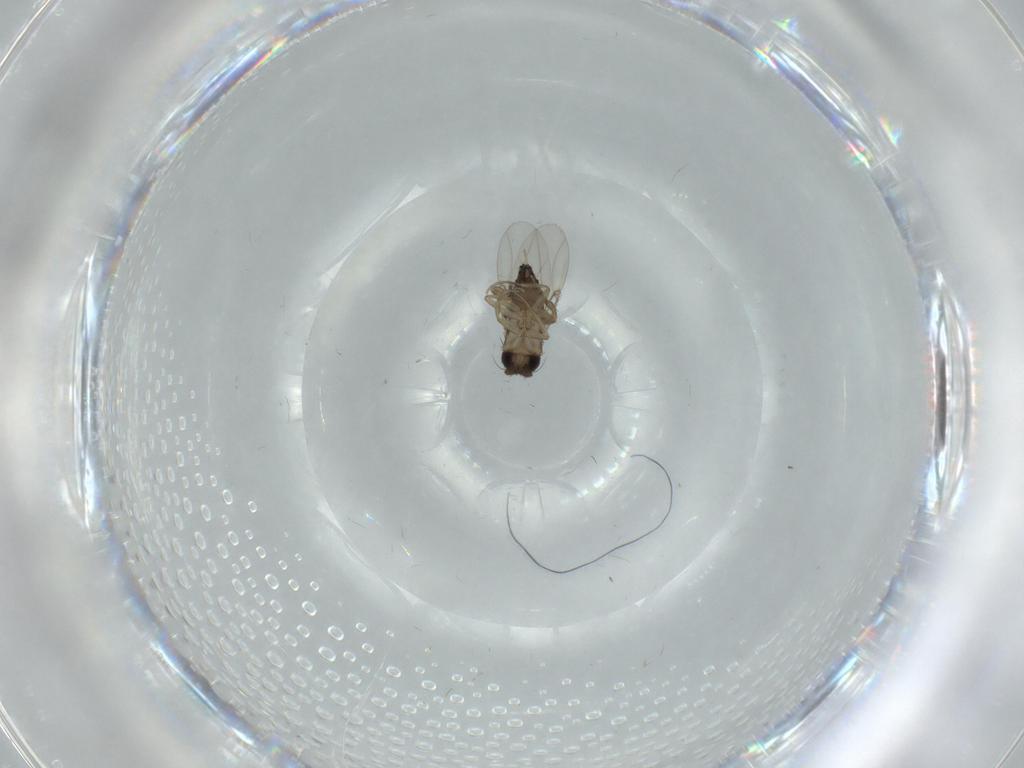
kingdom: Animalia
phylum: Arthropoda
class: Insecta
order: Diptera
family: Phoridae
